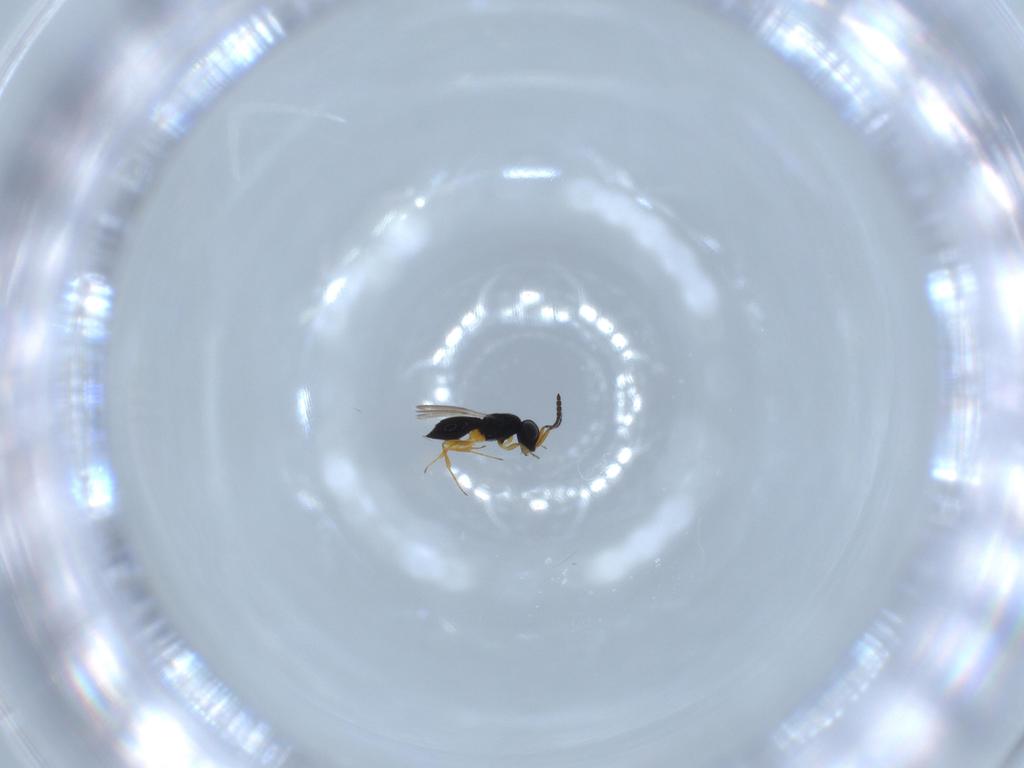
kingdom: Animalia
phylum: Arthropoda
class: Insecta
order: Hymenoptera
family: Scelionidae
